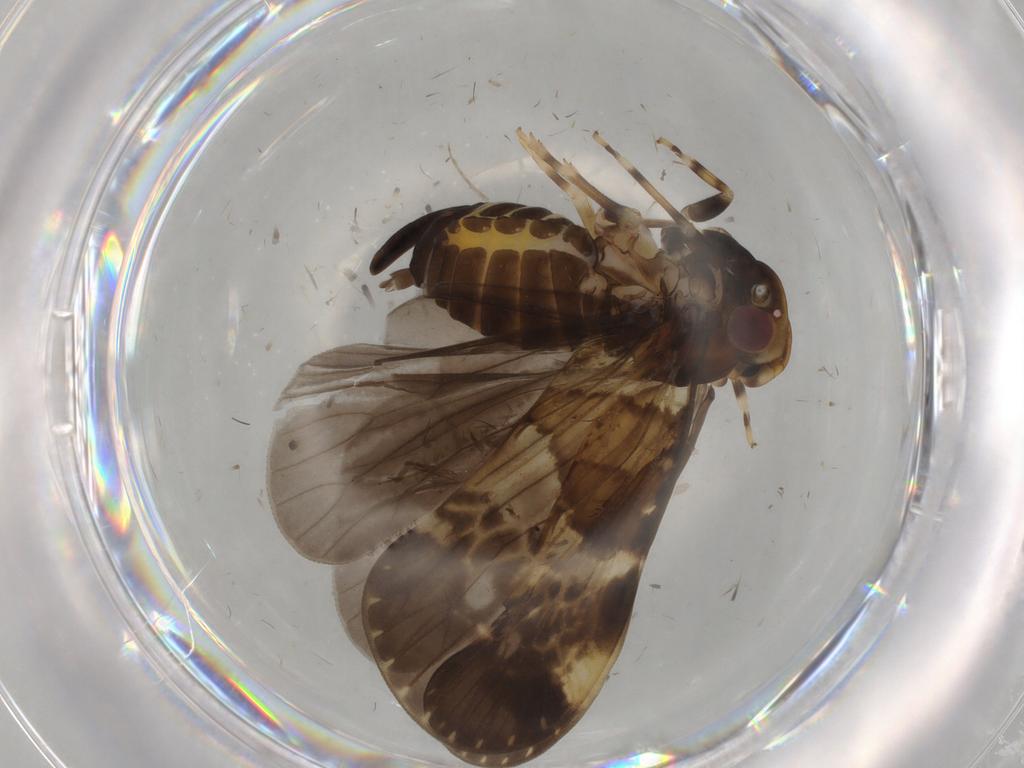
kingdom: Animalia
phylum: Arthropoda
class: Insecta
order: Hemiptera
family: Cixiidae
